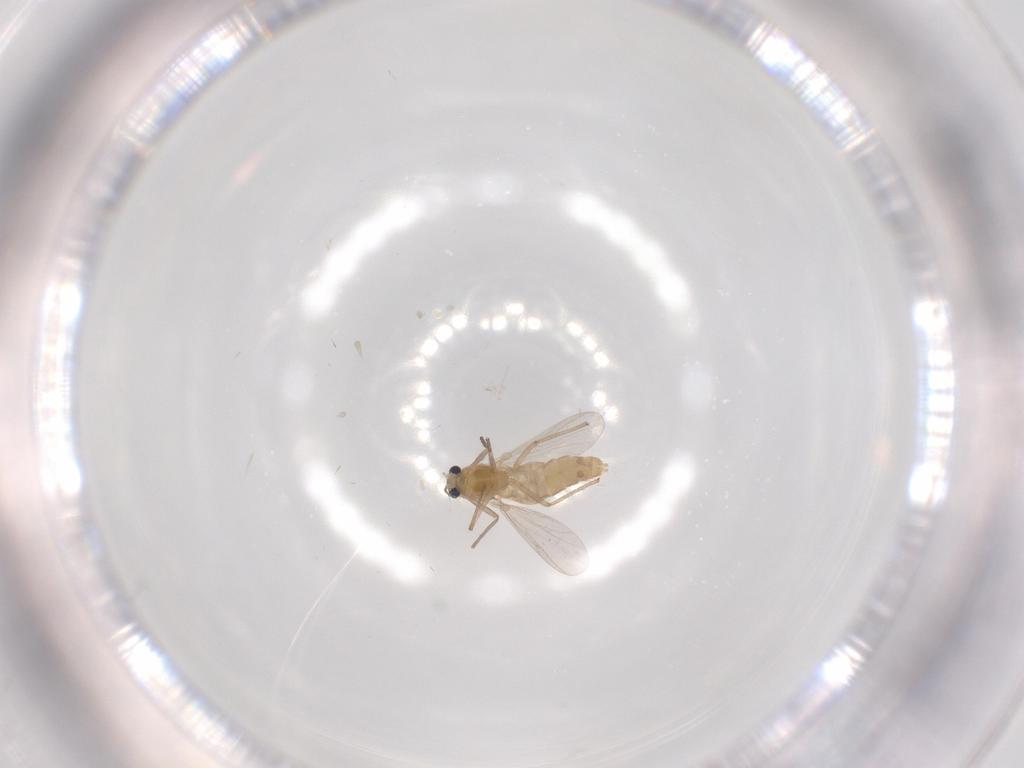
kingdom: Animalia
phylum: Arthropoda
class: Insecta
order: Diptera
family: Chironomidae
